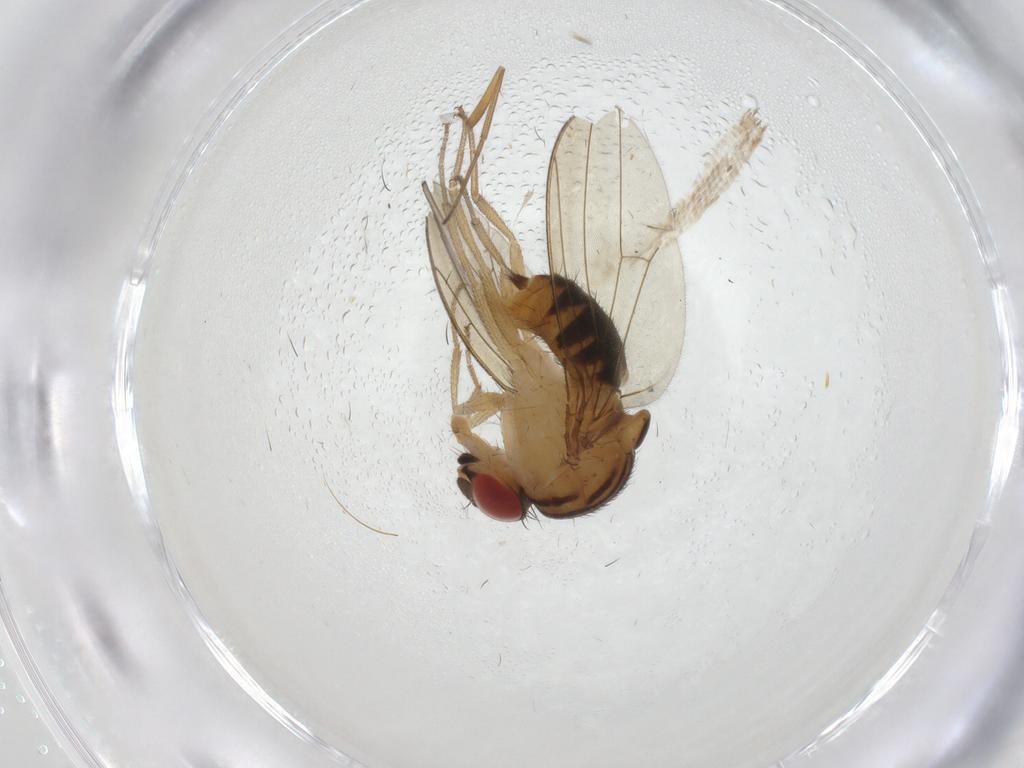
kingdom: Animalia
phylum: Arthropoda
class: Insecta
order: Diptera
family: Drosophilidae
